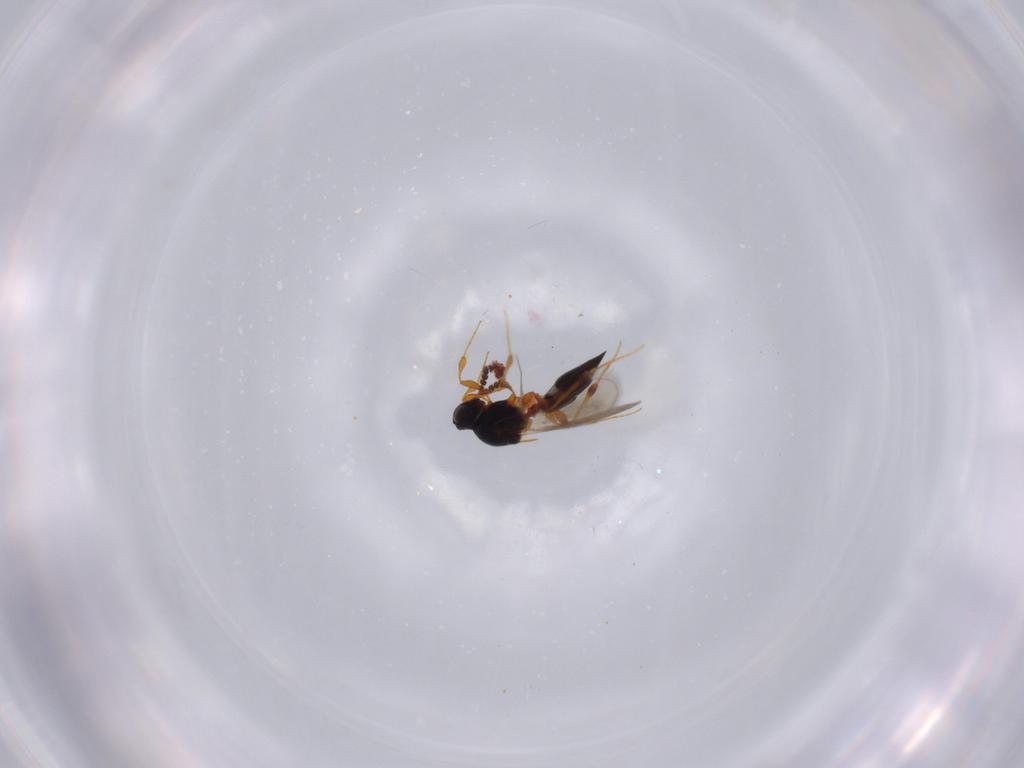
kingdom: Animalia
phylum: Arthropoda
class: Insecta
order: Hymenoptera
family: Platygastridae
